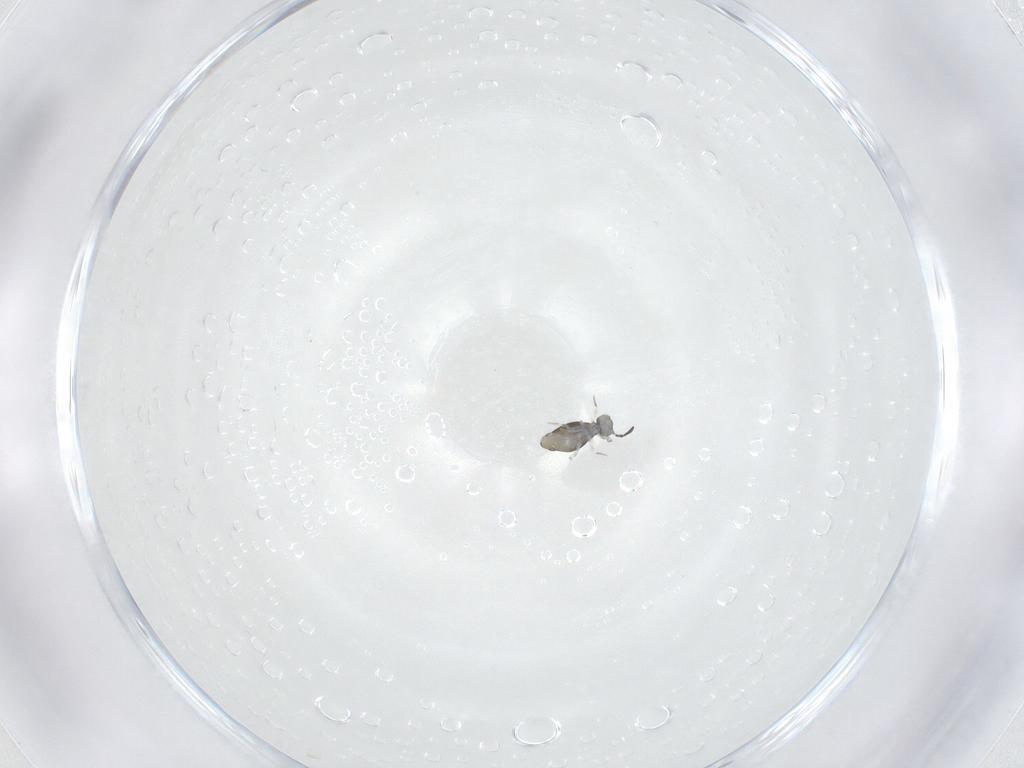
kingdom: Animalia
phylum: Arthropoda
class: Collembola
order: Symphypleona
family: Katiannidae
